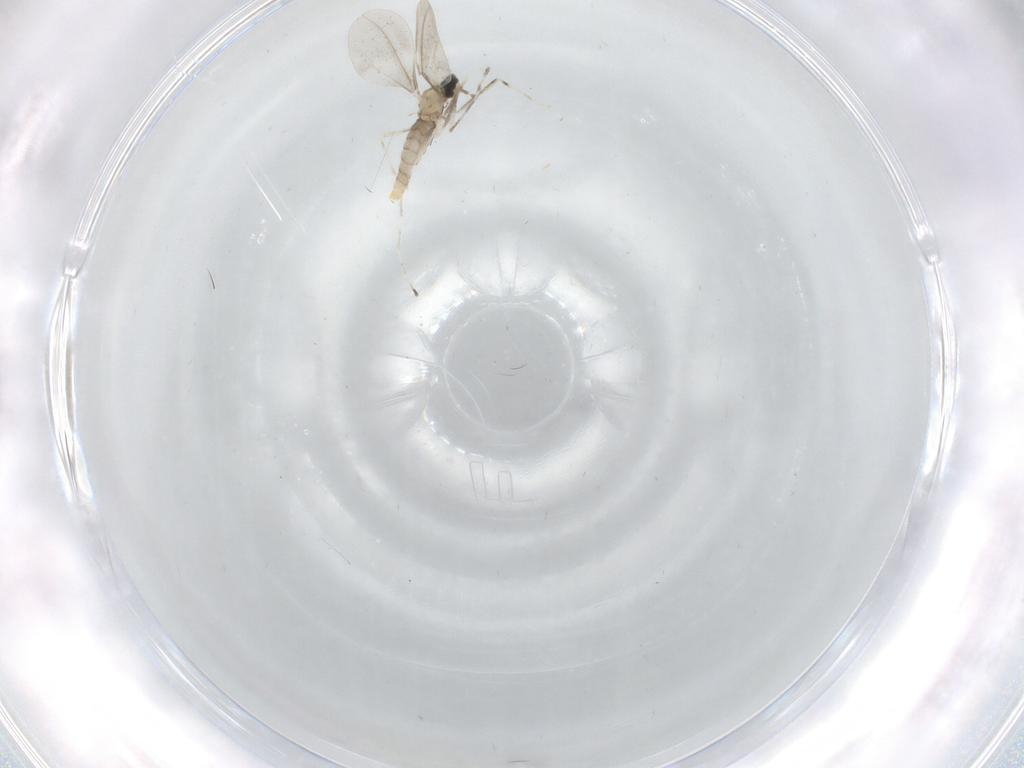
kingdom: Animalia
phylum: Arthropoda
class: Insecta
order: Diptera
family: Cecidomyiidae
